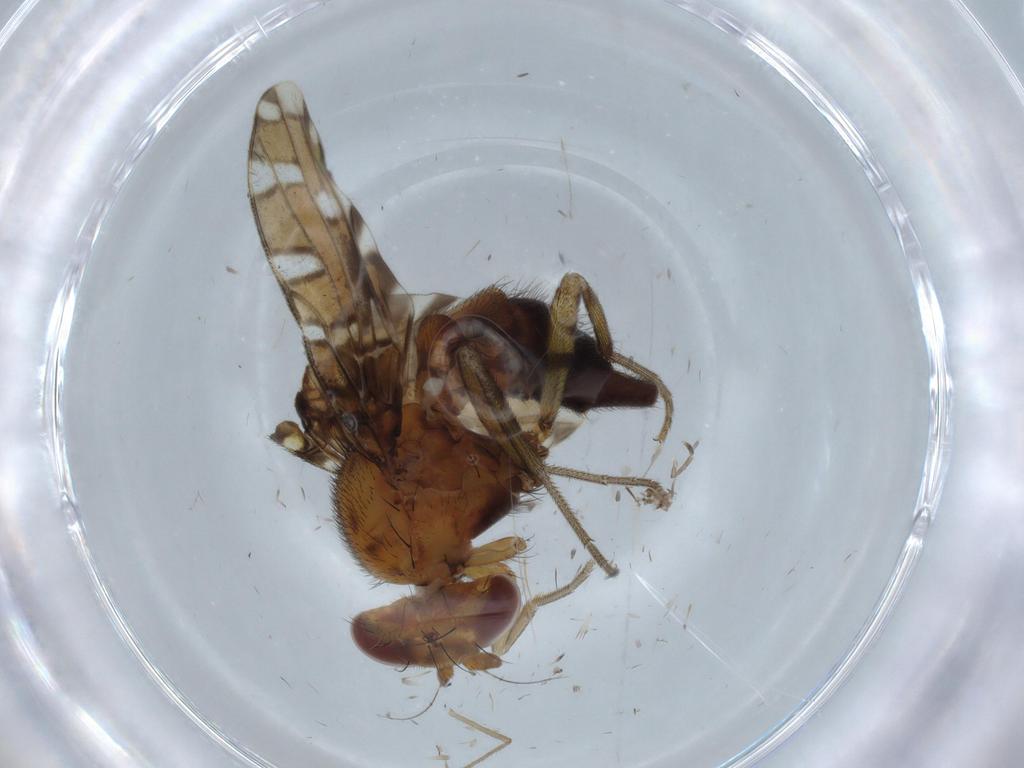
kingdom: Animalia
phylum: Arthropoda
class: Insecta
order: Diptera
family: Ulidiidae
